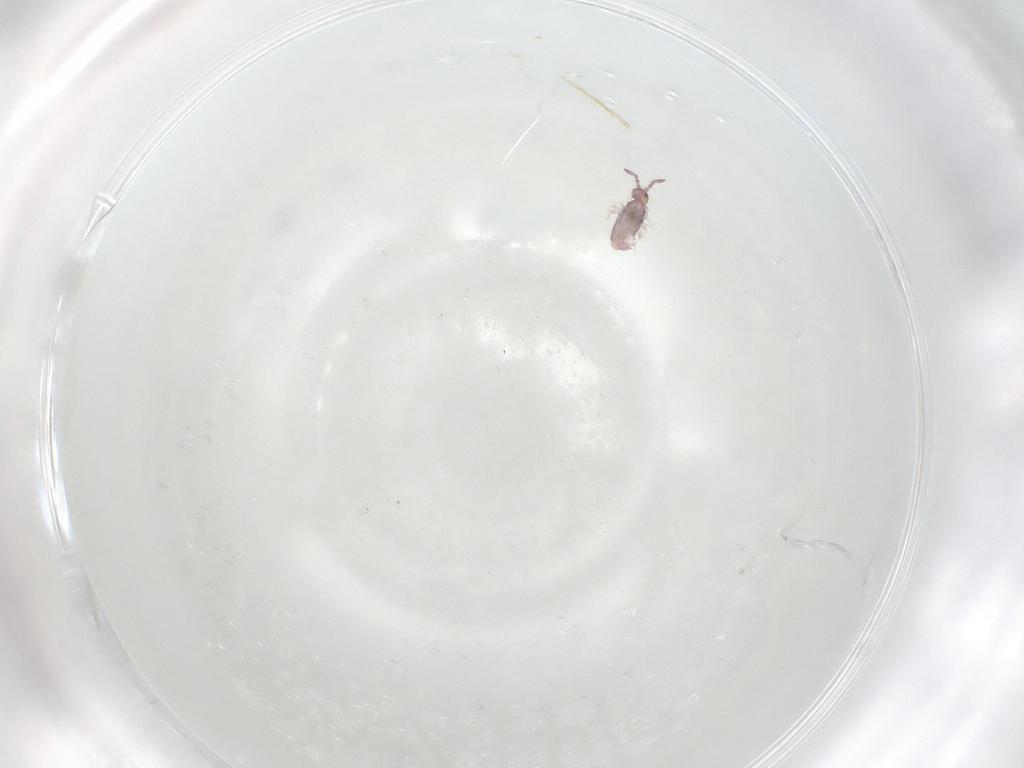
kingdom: Animalia
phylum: Arthropoda
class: Collembola
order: Entomobryomorpha
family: Entomobryidae
